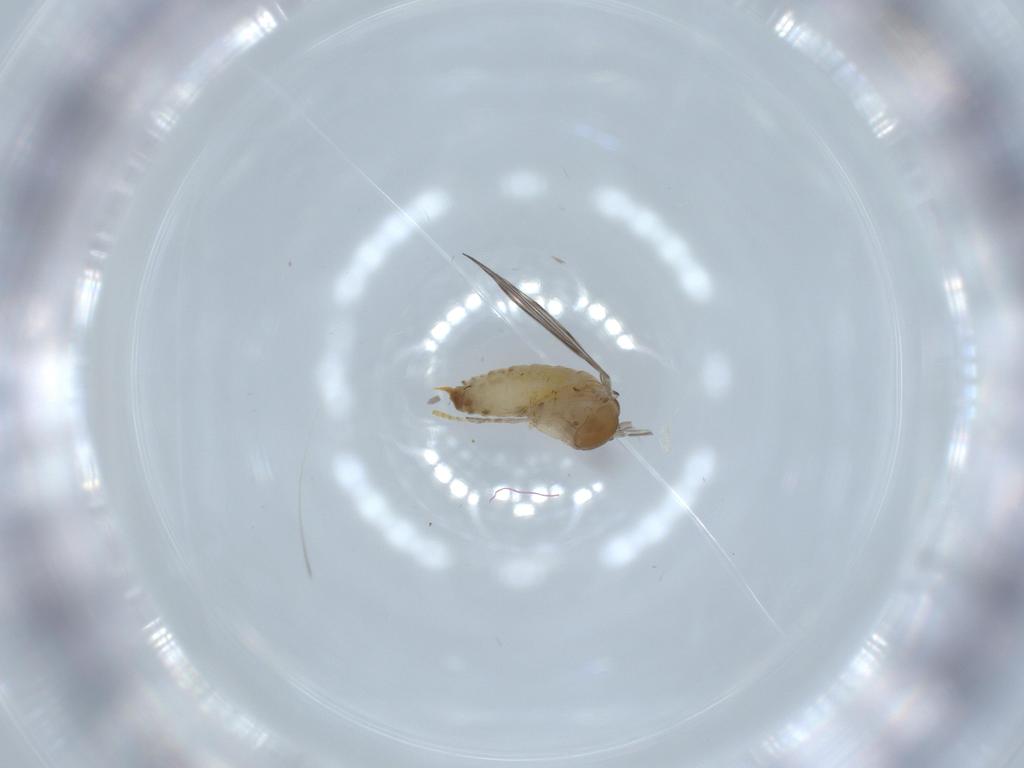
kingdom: Animalia
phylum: Arthropoda
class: Insecta
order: Diptera
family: Psychodidae
